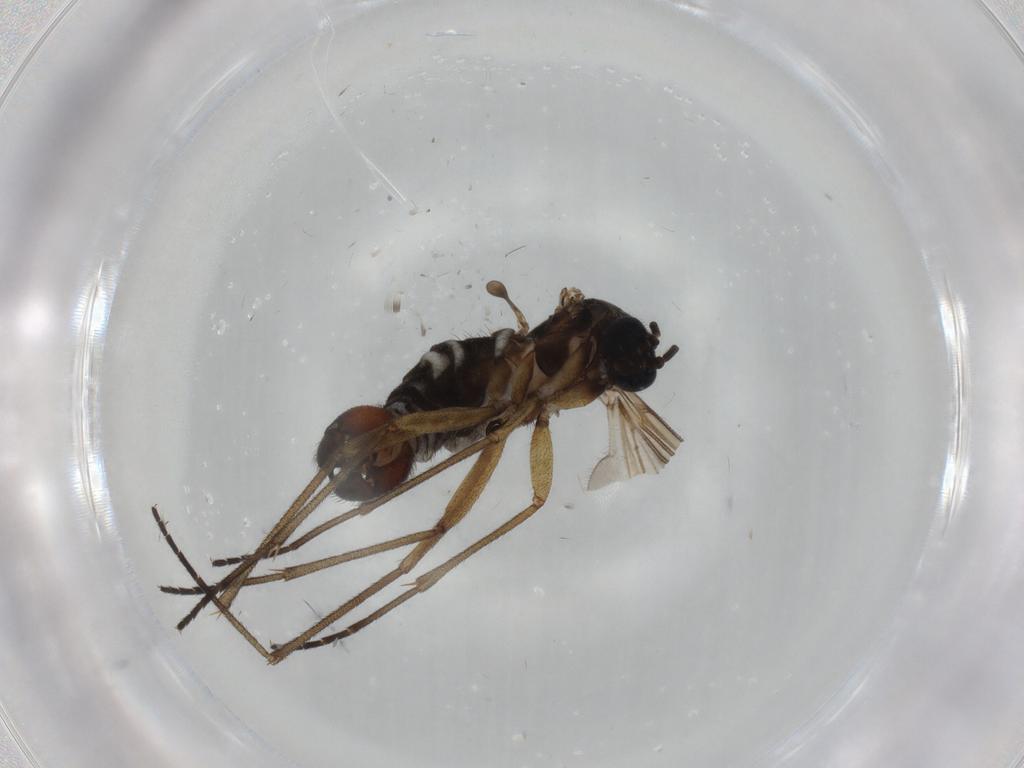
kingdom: Animalia
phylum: Arthropoda
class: Insecta
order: Diptera
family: Sciaridae
